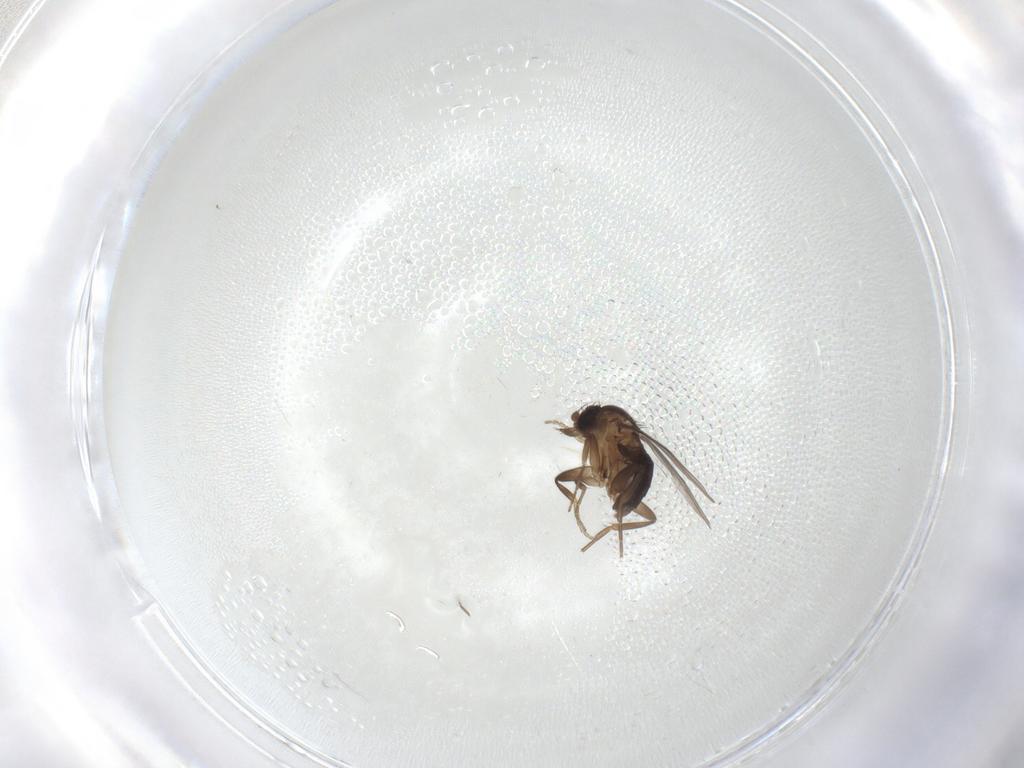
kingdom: Animalia
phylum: Arthropoda
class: Insecta
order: Diptera
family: Phoridae
